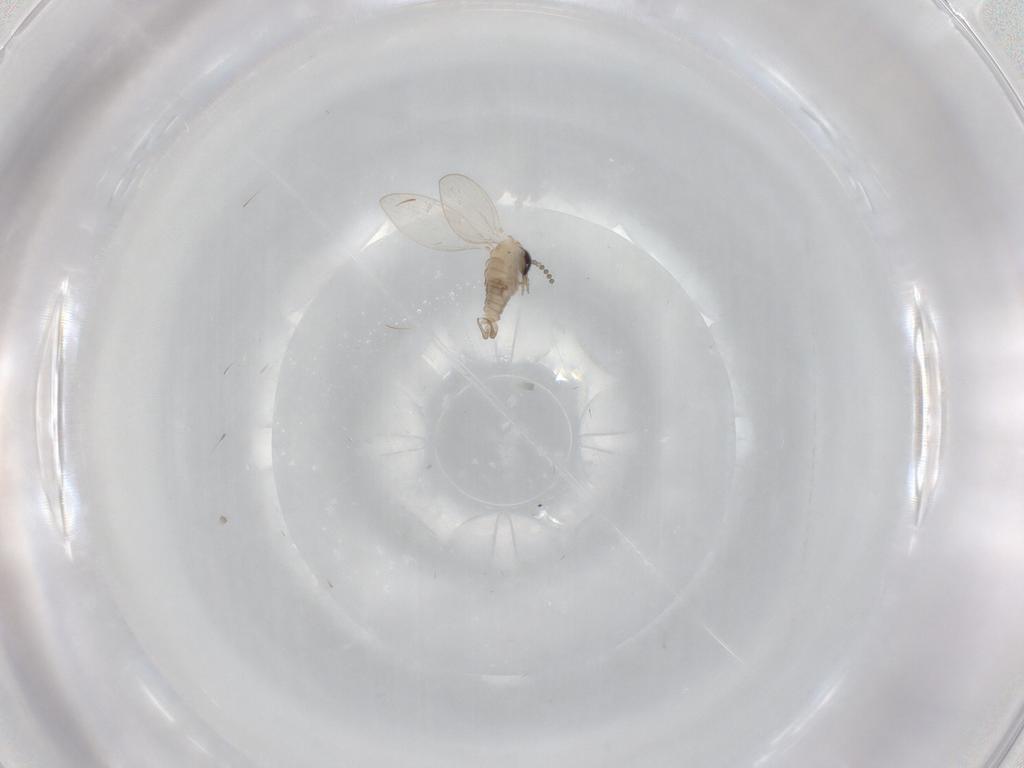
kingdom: Animalia
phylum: Arthropoda
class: Insecta
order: Diptera
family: Psychodidae
